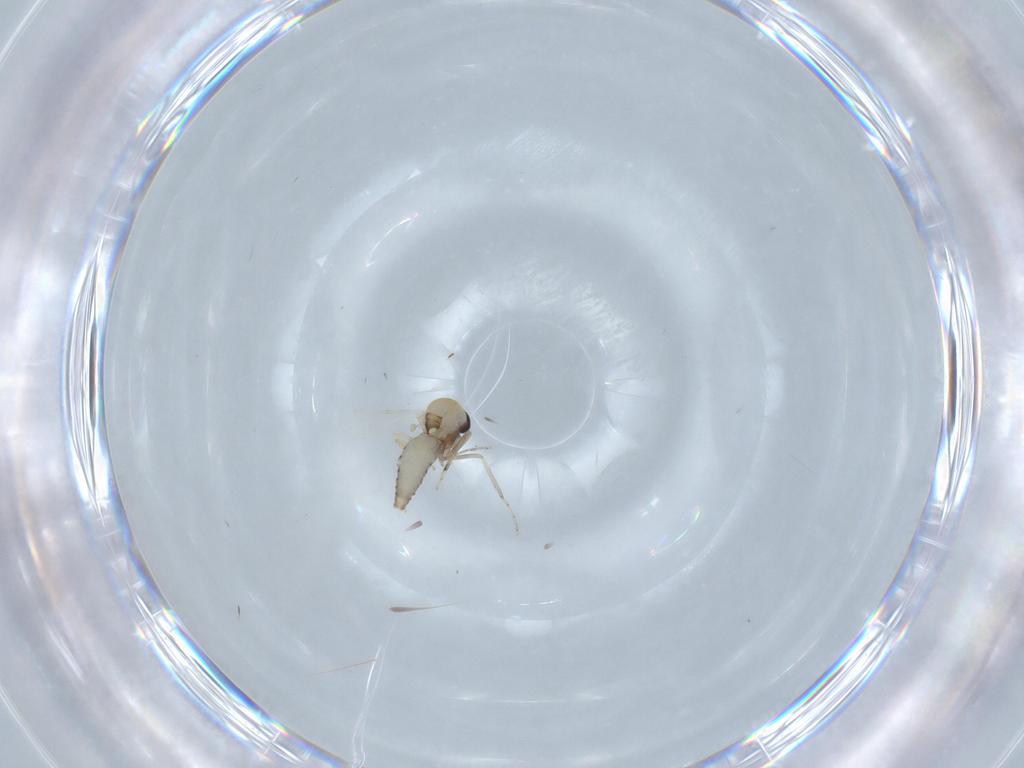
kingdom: Animalia
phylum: Arthropoda
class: Insecta
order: Diptera
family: Ceratopogonidae
